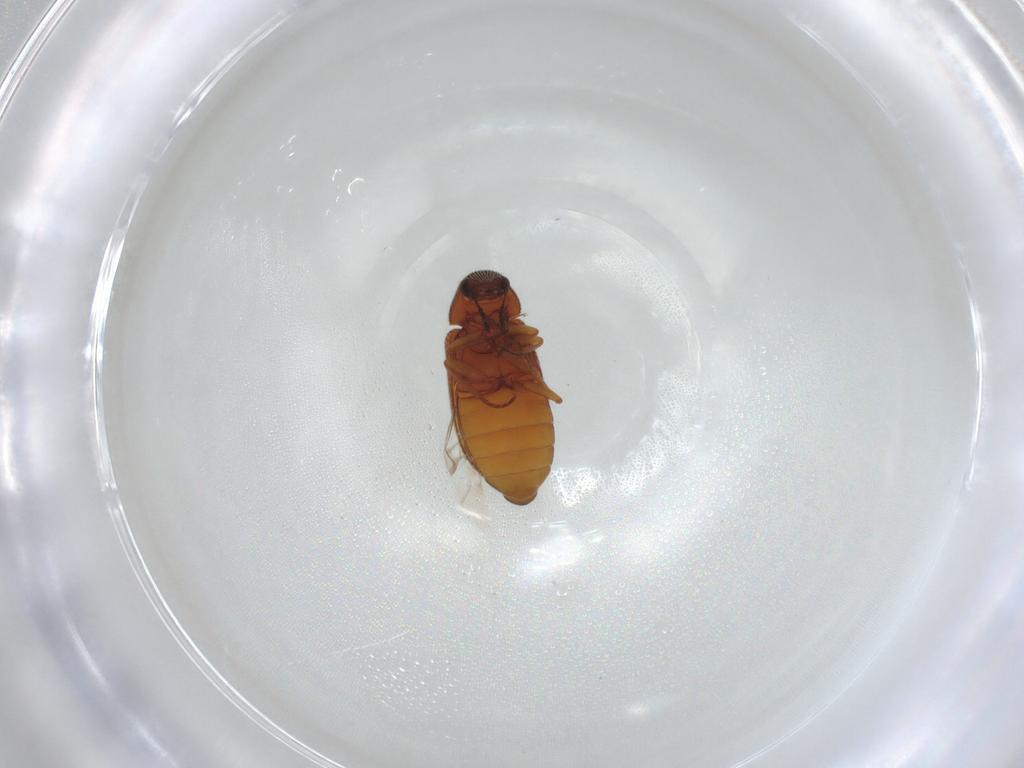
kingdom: Animalia
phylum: Arthropoda
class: Insecta
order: Coleoptera
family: Rhadalidae
